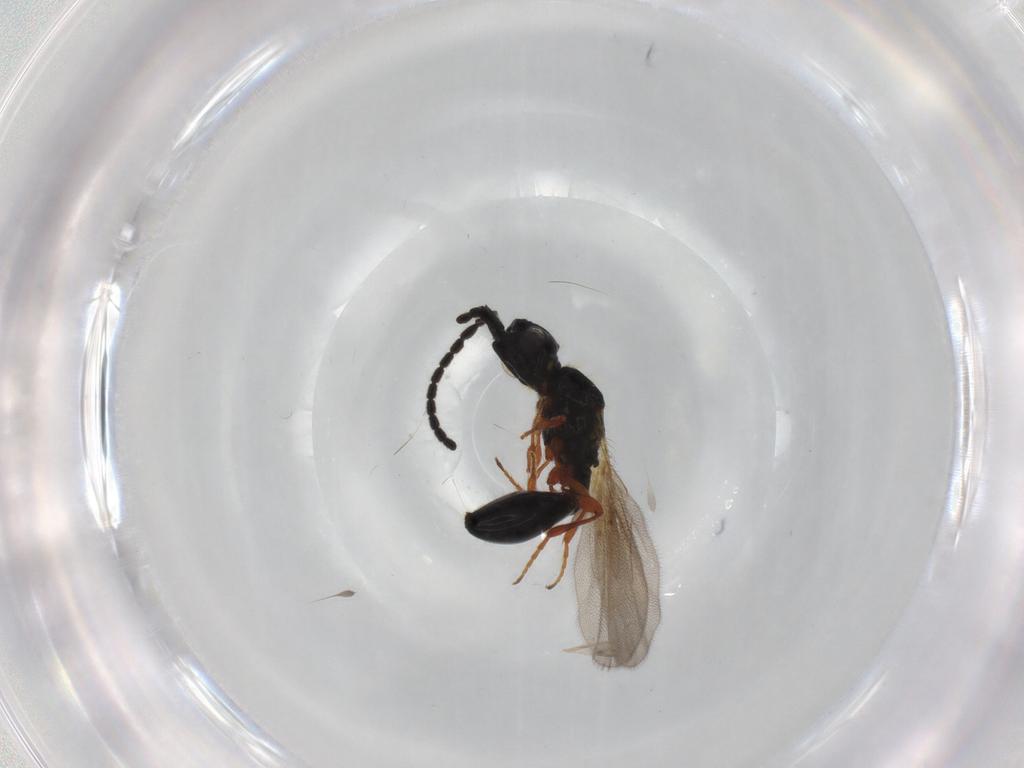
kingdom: Animalia
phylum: Arthropoda
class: Insecta
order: Hymenoptera
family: Diapriidae
